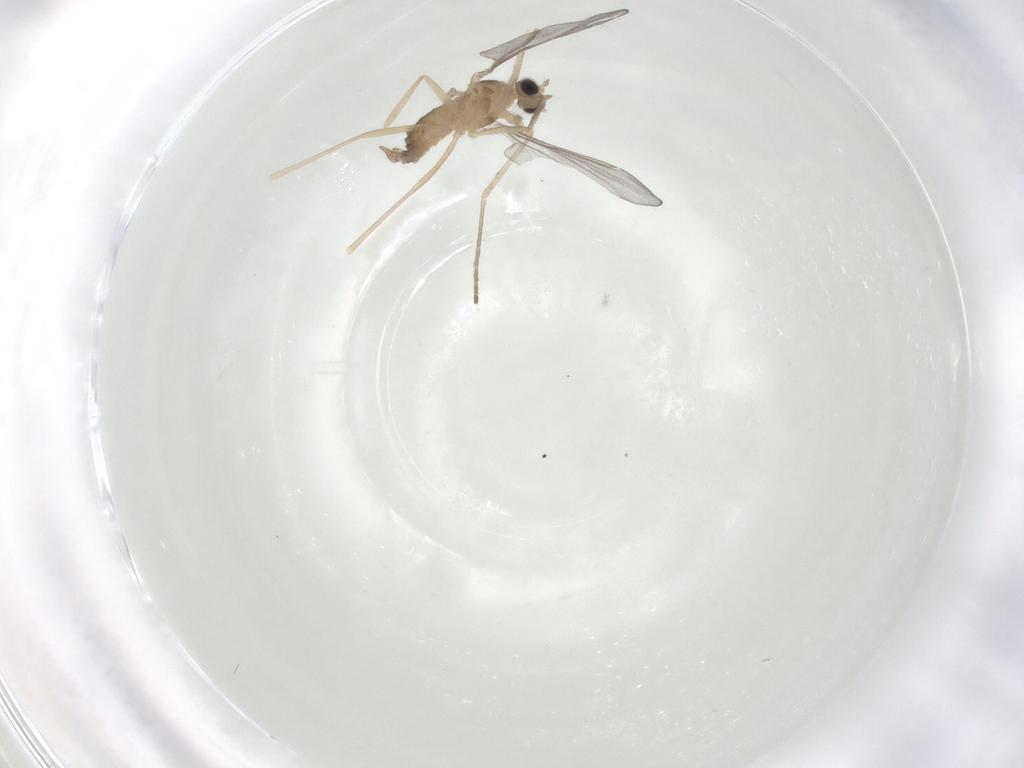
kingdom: Animalia
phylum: Arthropoda
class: Insecta
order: Diptera
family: Cecidomyiidae
